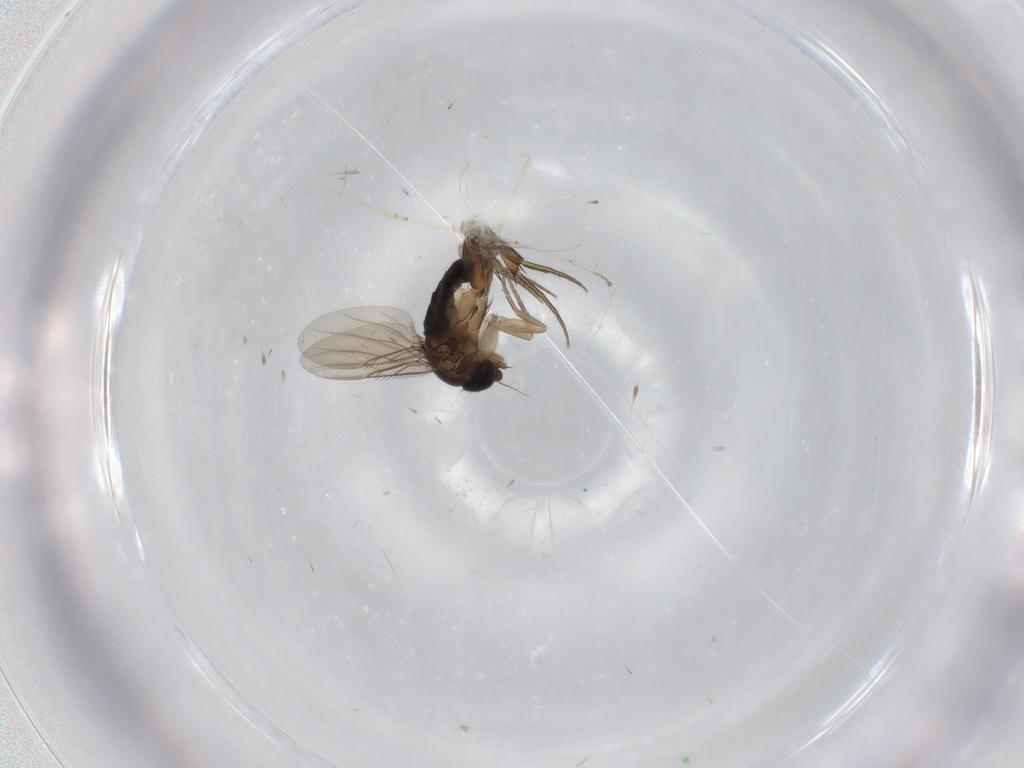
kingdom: Animalia
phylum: Arthropoda
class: Insecta
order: Diptera
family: Phoridae
